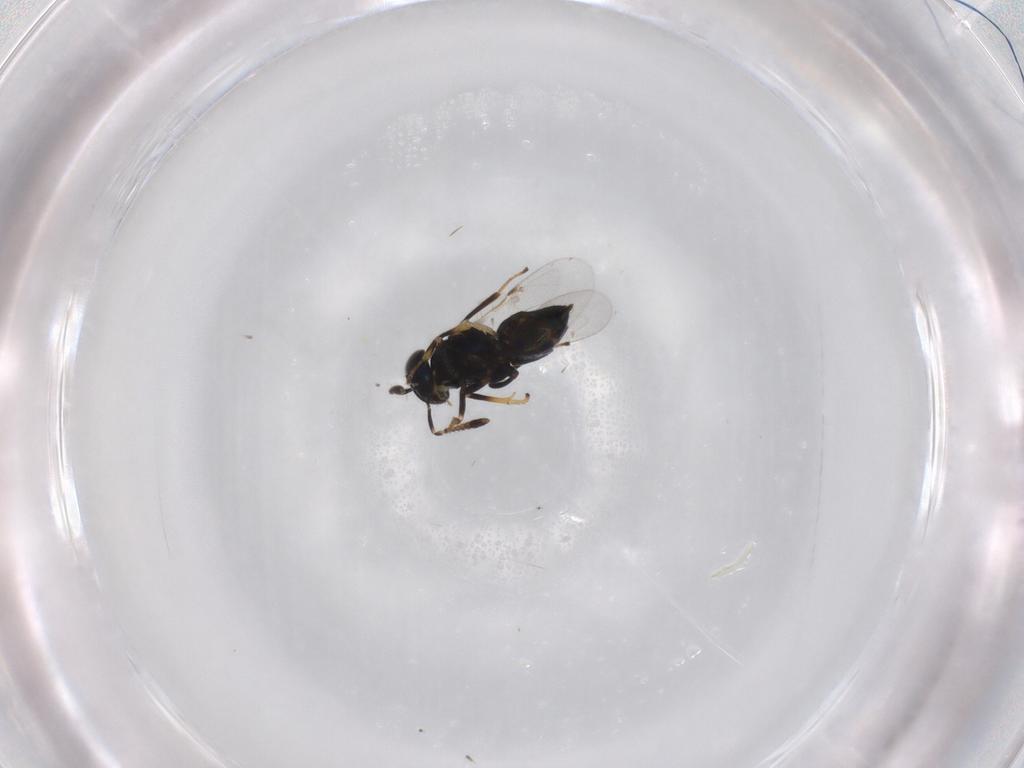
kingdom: Animalia
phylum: Arthropoda
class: Insecta
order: Hymenoptera
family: Encyrtidae
